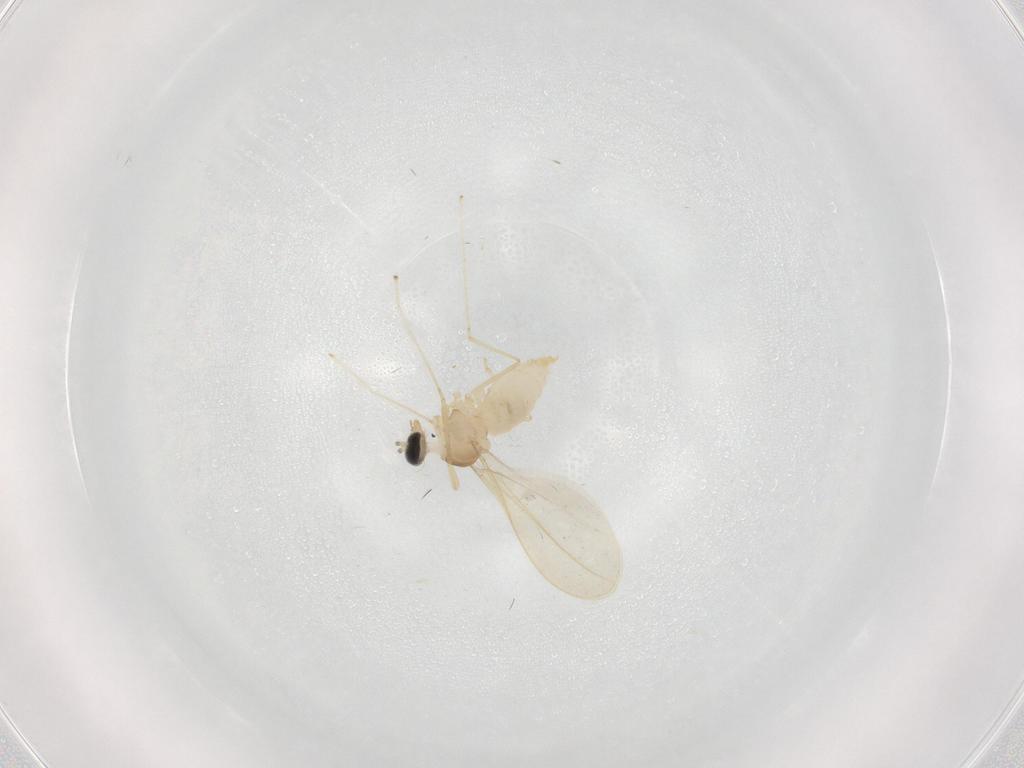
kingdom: Animalia
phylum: Arthropoda
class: Insecta
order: Diptera
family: Cecidomyiidae
